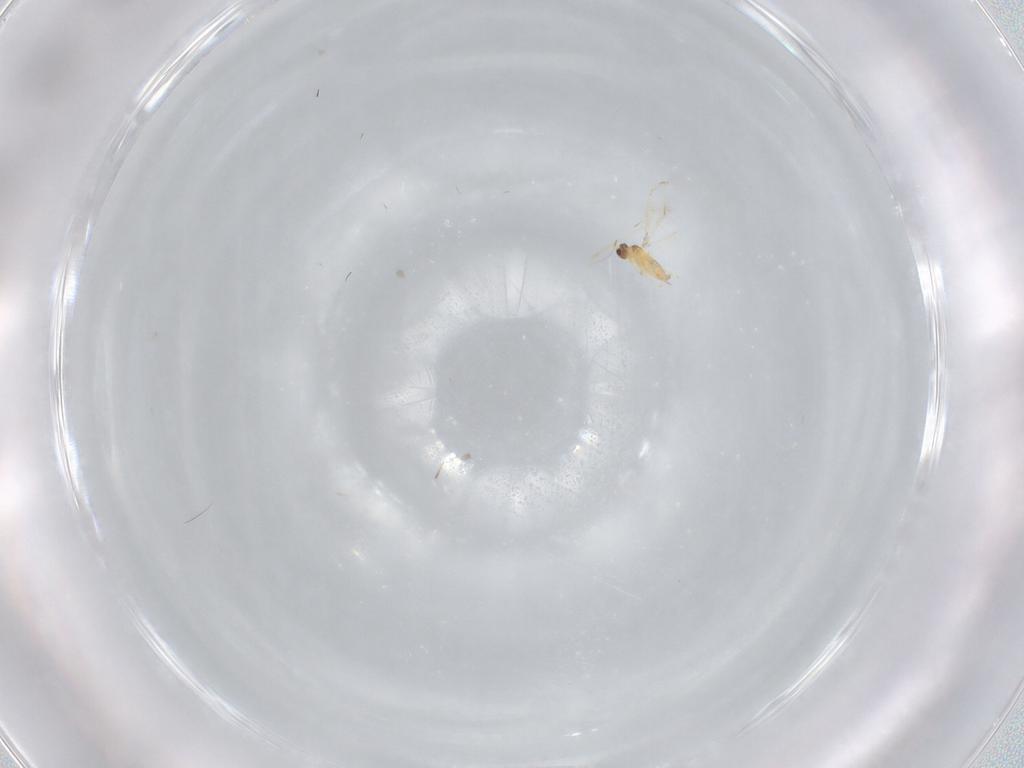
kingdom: Animalia
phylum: Arthropoda
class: Insecta
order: Hymenoptera
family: Mymaridae
